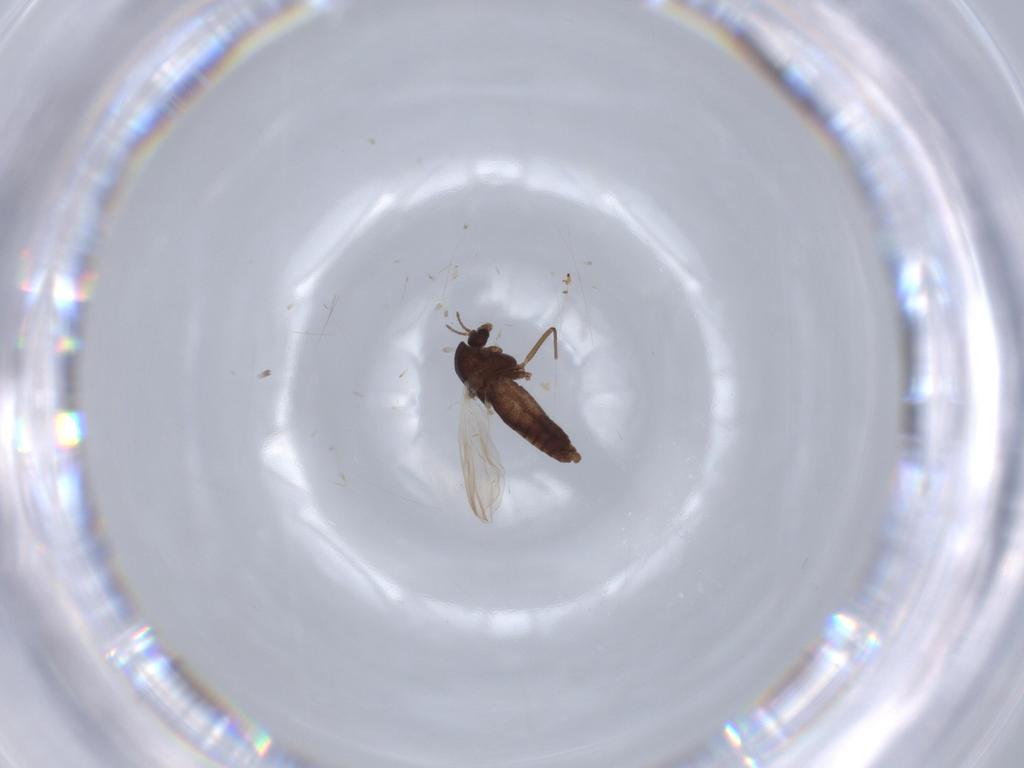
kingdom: Animalia
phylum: Arthropoda
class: Insecta
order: Diptera
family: Chironomidae
